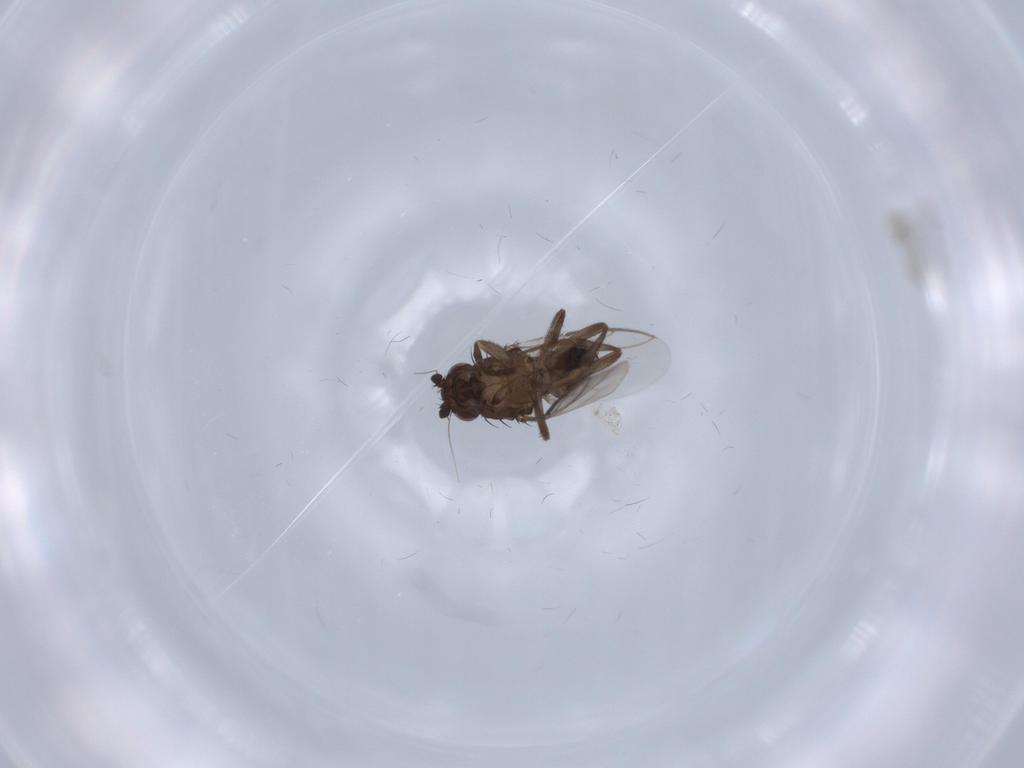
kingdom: Animalia
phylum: Arthropoda
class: Insecta
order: Diptera
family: Sphaeroceridae
